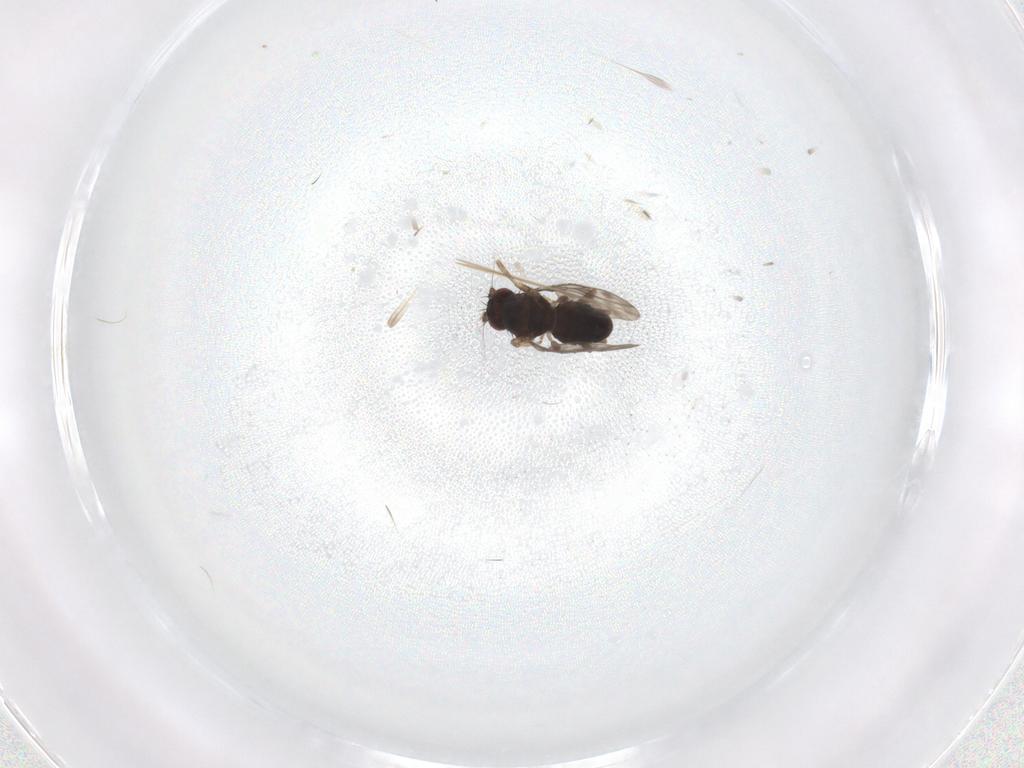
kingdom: Animalia
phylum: Arthropoda
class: Insecta
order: Diptera
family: Sphaeroceridae
